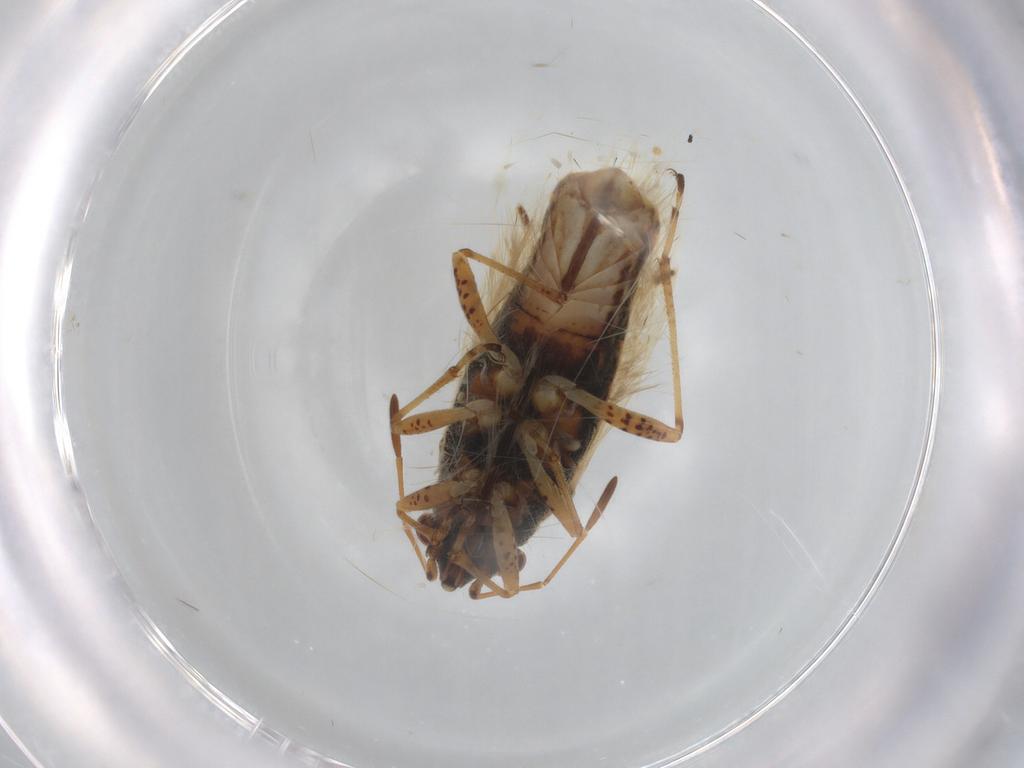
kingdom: Animalia
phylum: Arthropoda
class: Insecta
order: Hemiptera
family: Lygaeidae
